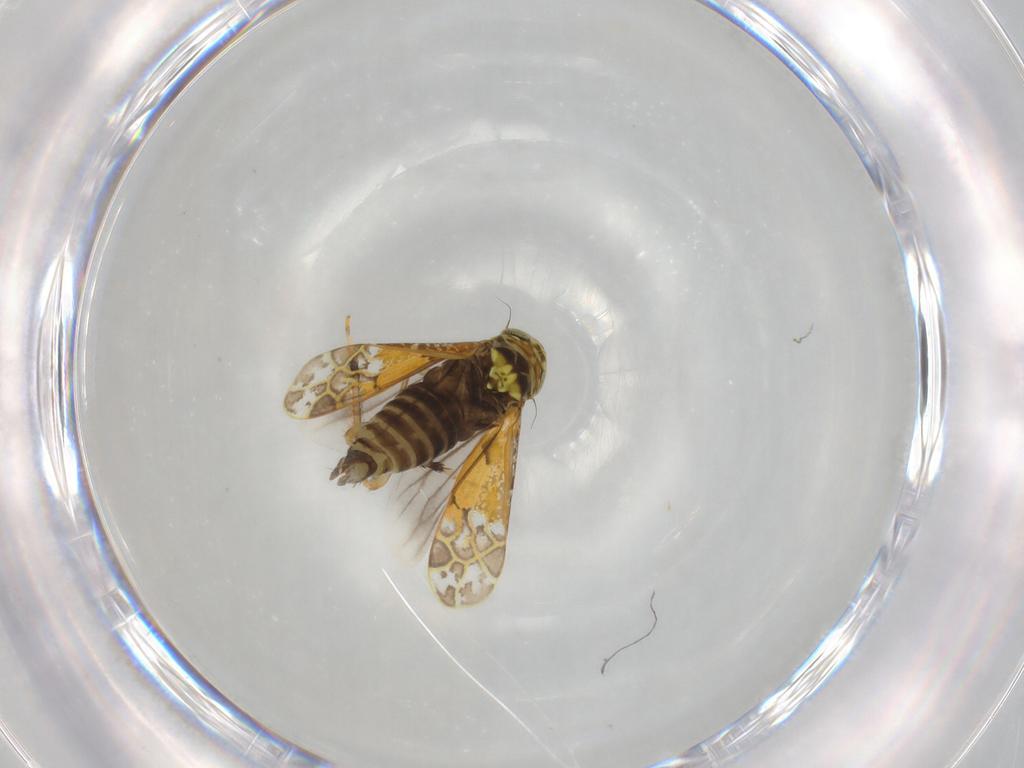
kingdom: Animalia
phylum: Arthropoda
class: Insecta
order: Hemiptera
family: Cicadellidae
